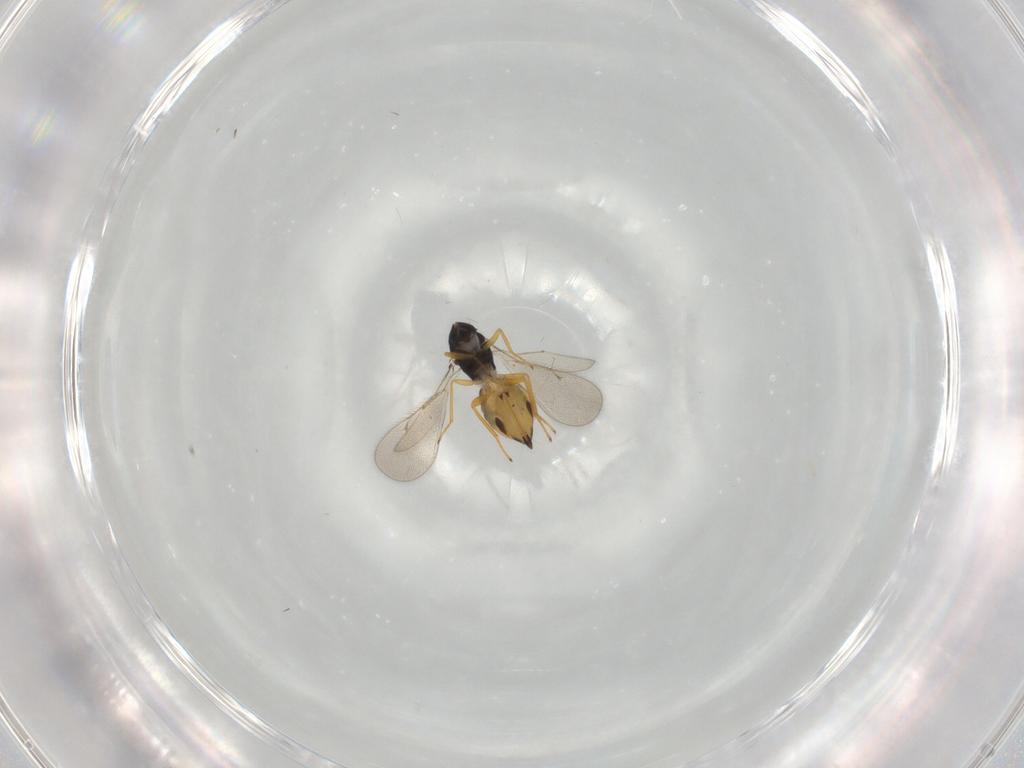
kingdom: Animalia
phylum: Arthropoda
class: Insecta
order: Hymenoptera
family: Eulophidae
